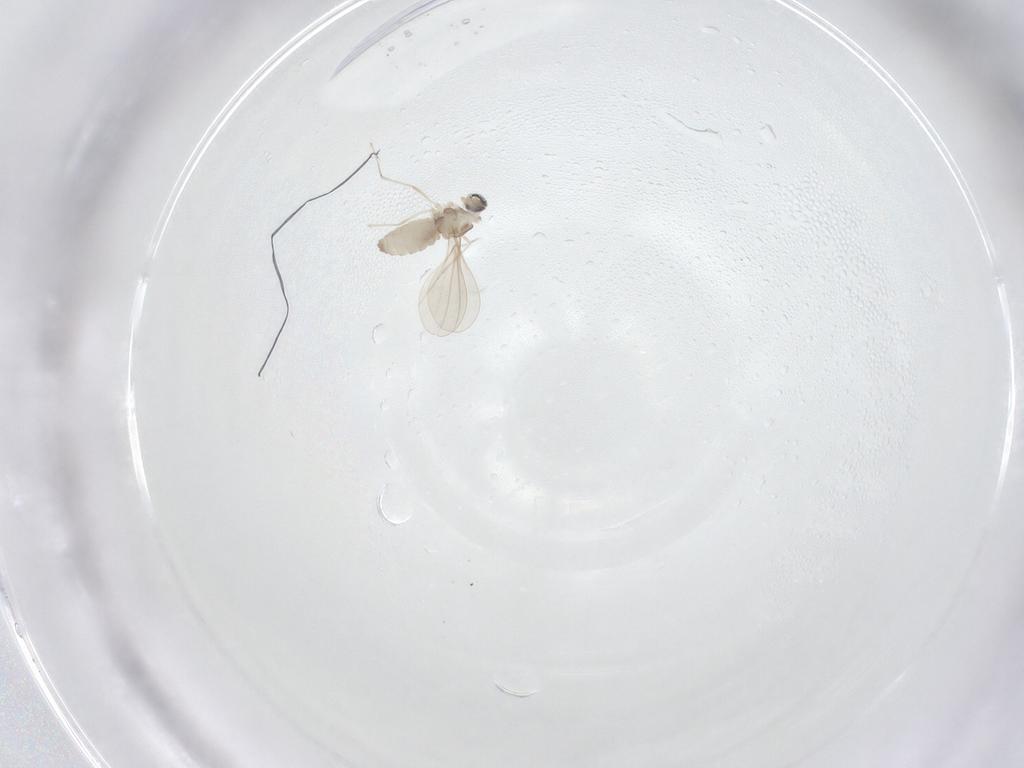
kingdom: Animalia
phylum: Arthropoda
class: Insecta
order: Diptera
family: Cecidomyiidae
